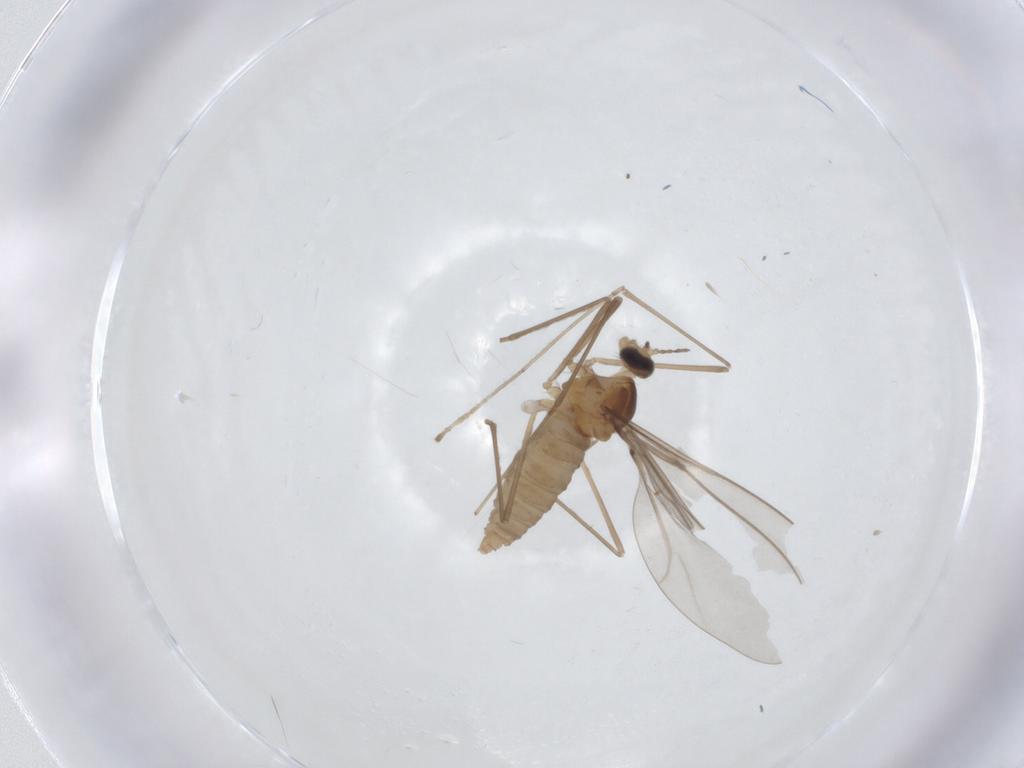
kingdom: Animalia
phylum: Arthropoda
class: Insecta
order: Diptera
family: Cecidomyiidae
